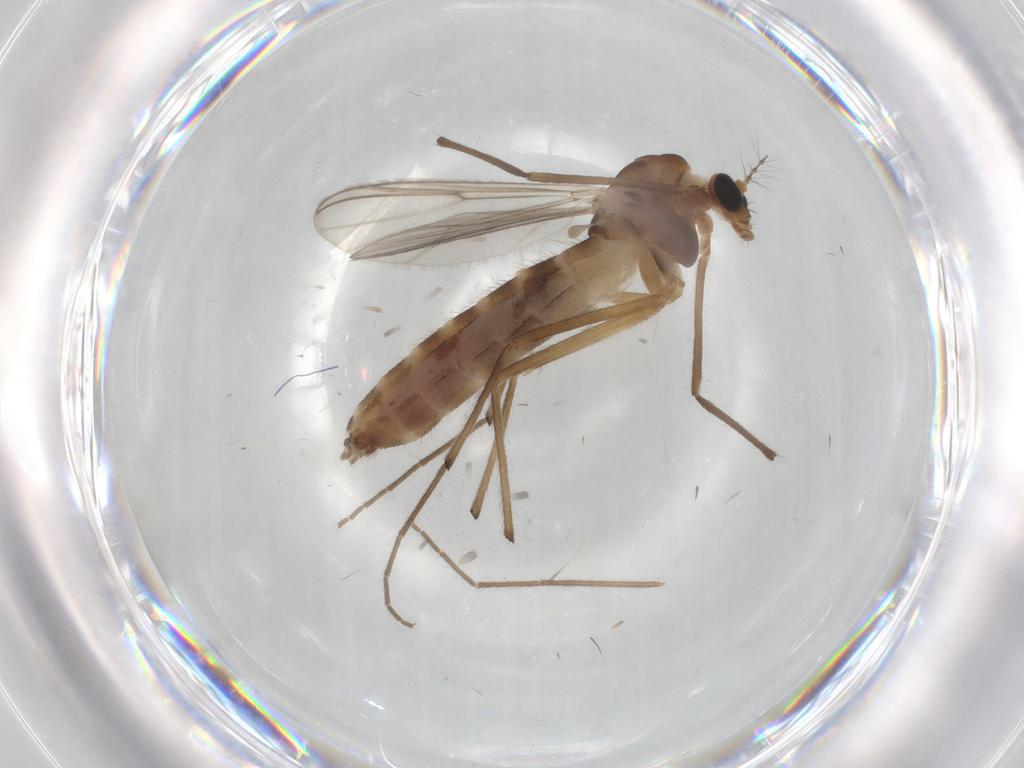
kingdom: Animalia
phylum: Arthropoda
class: Insecta
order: Diptera
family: Chironomidae
